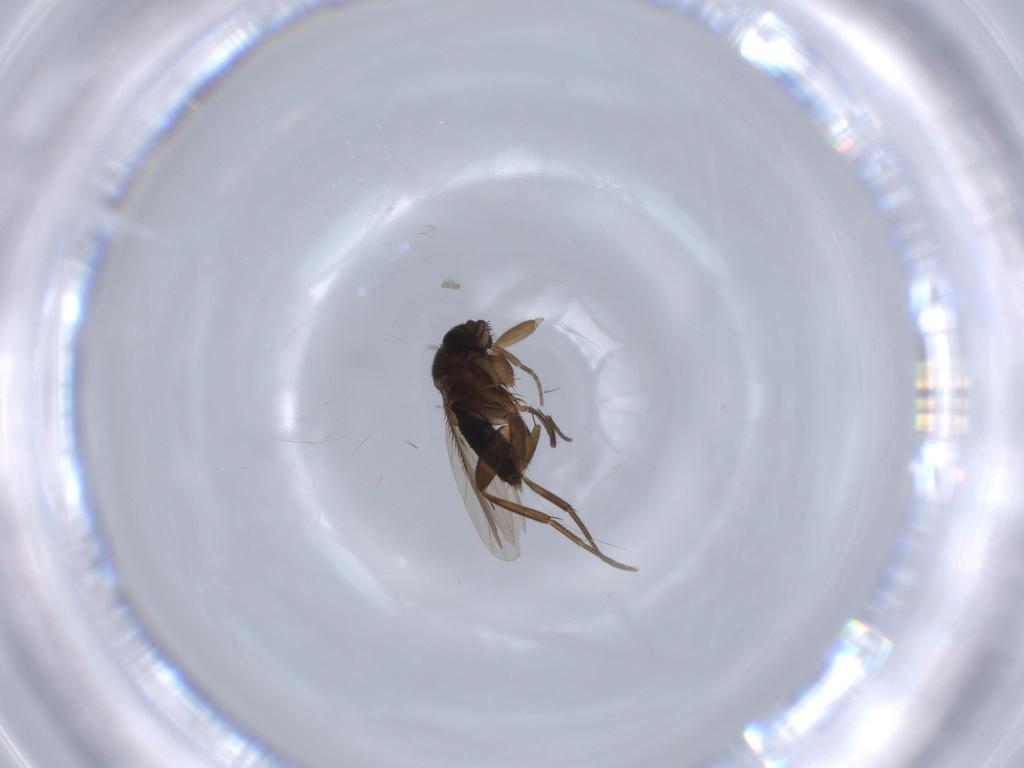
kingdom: Animalia
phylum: Arthropoda
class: Insecta
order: Diptera
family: Phoridae
